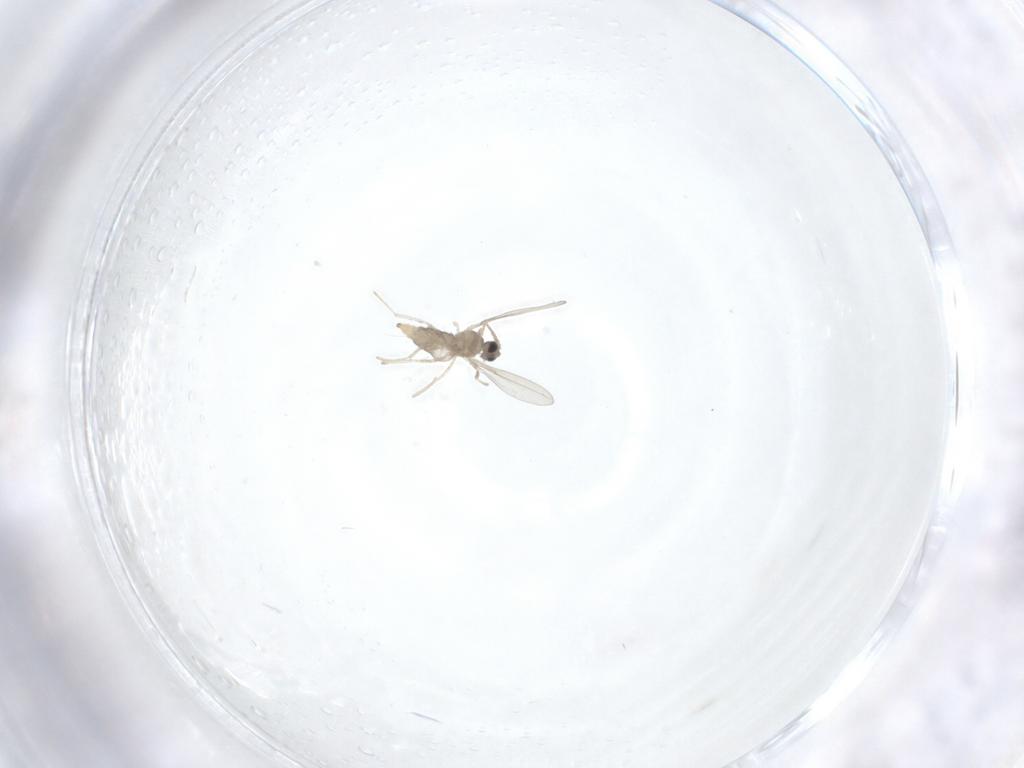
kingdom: Animalia
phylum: Arthropoda
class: Insecta
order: Diptera
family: Cecidomyiidae
